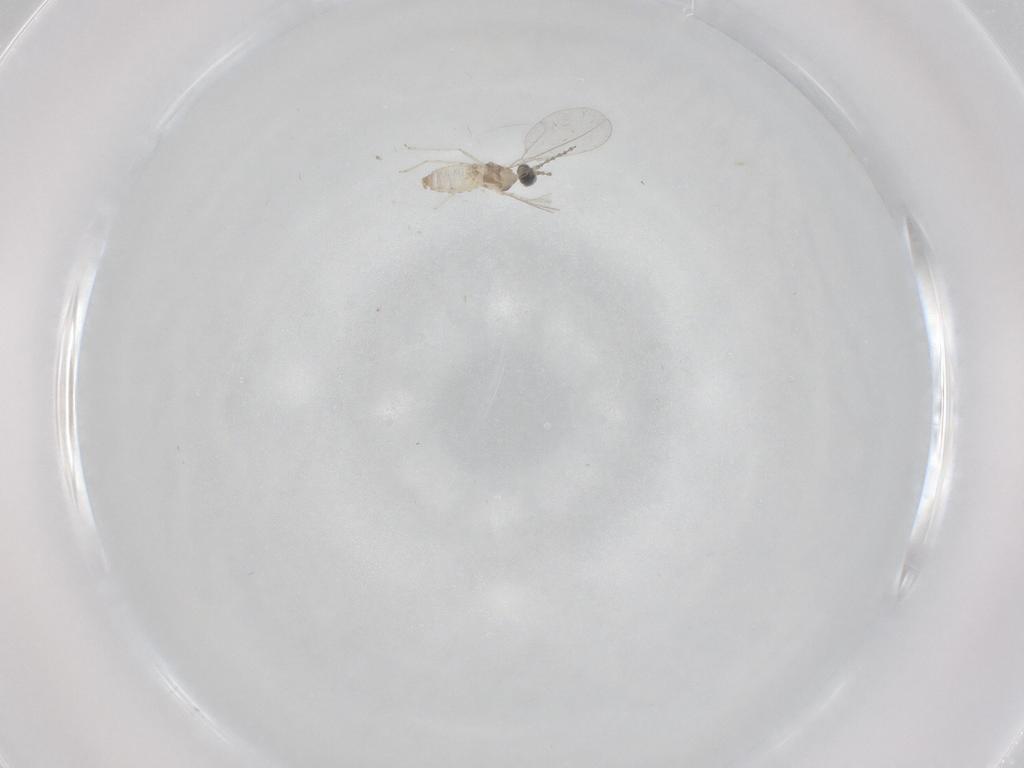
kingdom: Animalia
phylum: Arthropoda
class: Insecta
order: Diptera
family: Cecidomyiidae
